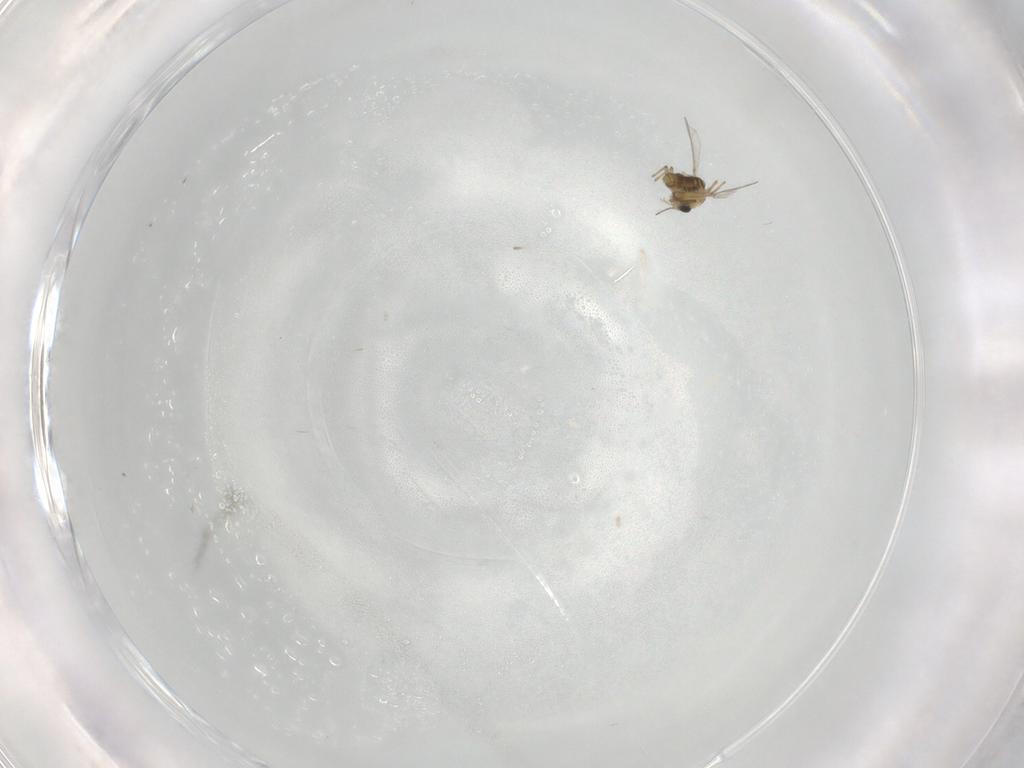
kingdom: Animalia
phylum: Arthropoda
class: Insecta
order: Diptera
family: Chironomidae
